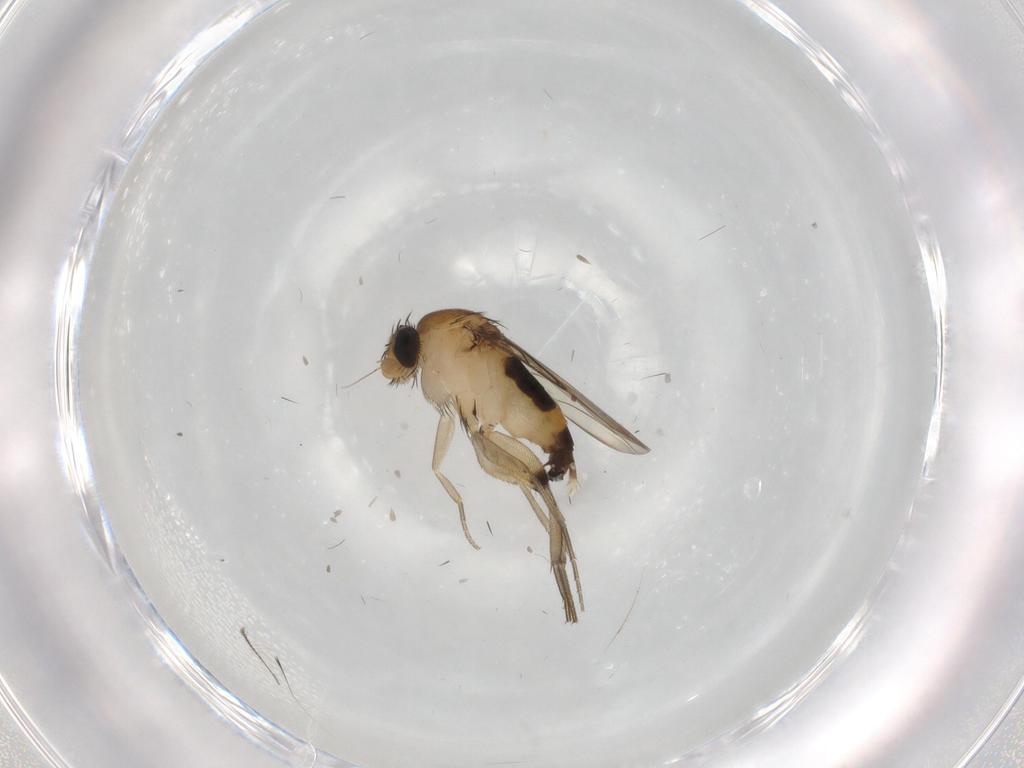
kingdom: Animalia
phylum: Arthropoda
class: Insecta
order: Diptera
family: Phoridae
